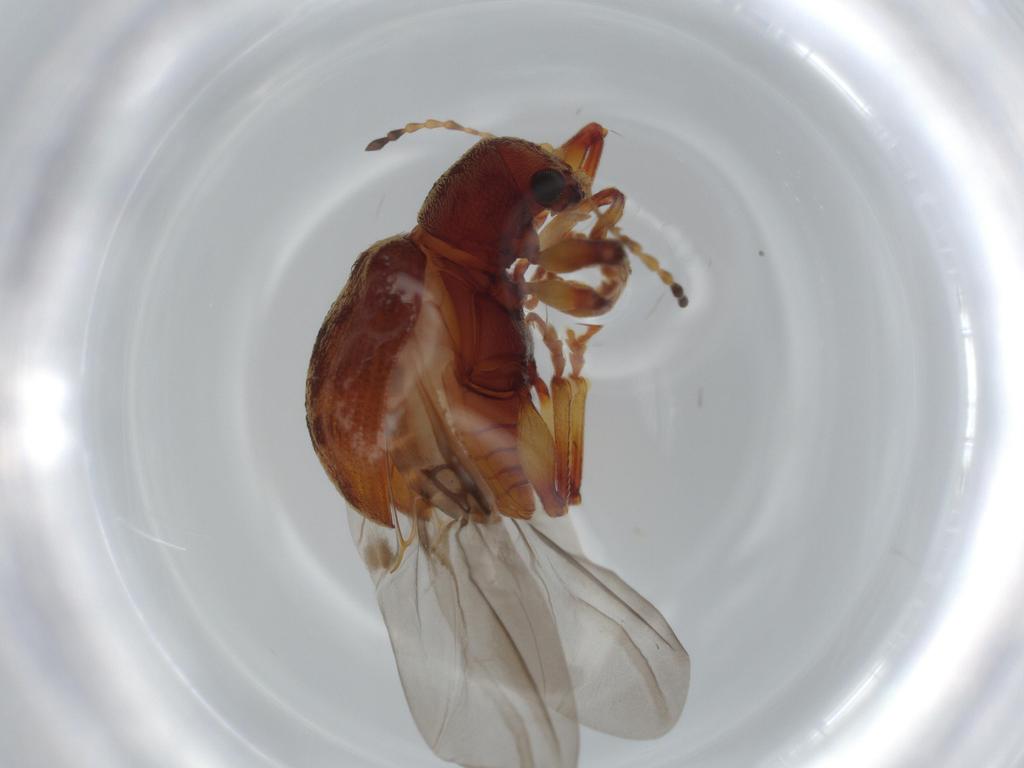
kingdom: Animalia
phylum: Arthropoda
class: Insecta
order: Coleoptera
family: Chrysomelidae
